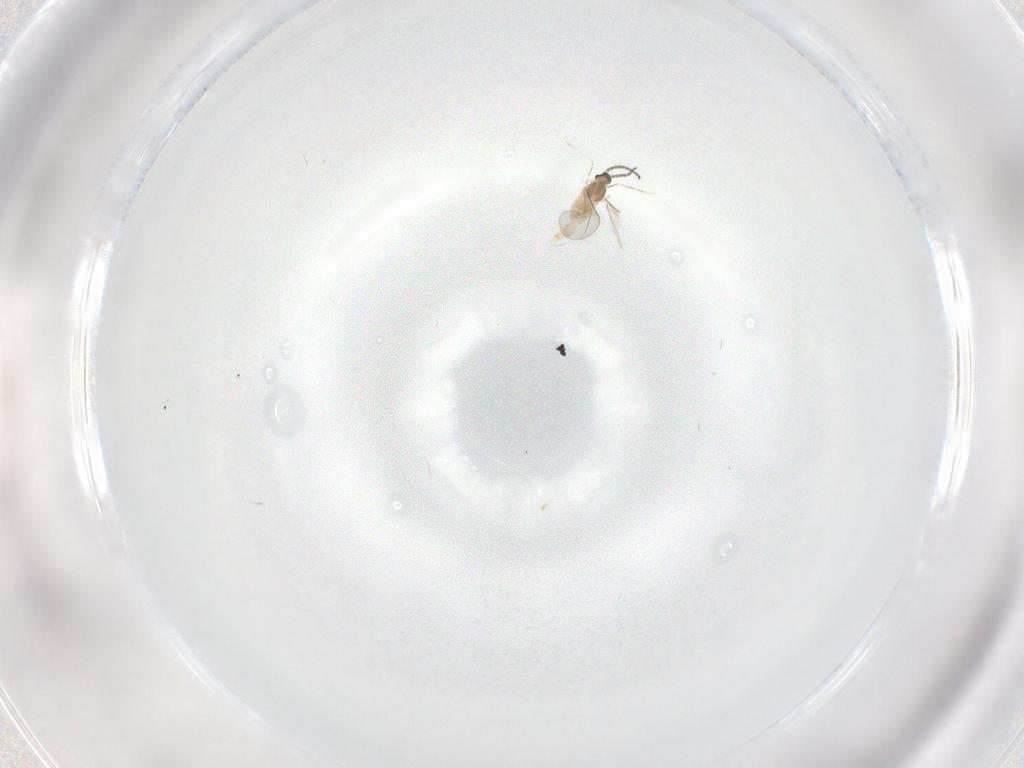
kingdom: Animalia
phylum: Arthropoda
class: Insecta
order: Diptera
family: Cecidomyiidae
